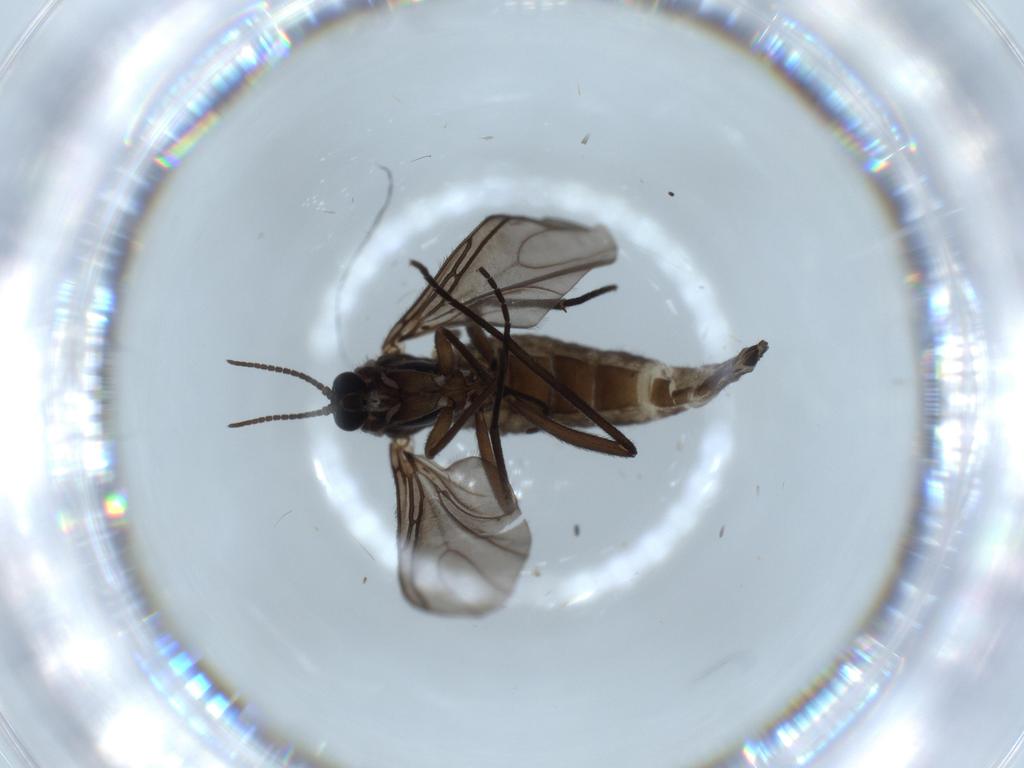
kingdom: Animalia
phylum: Arthropoda
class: Insecta
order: Diptera
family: Sciaridae
